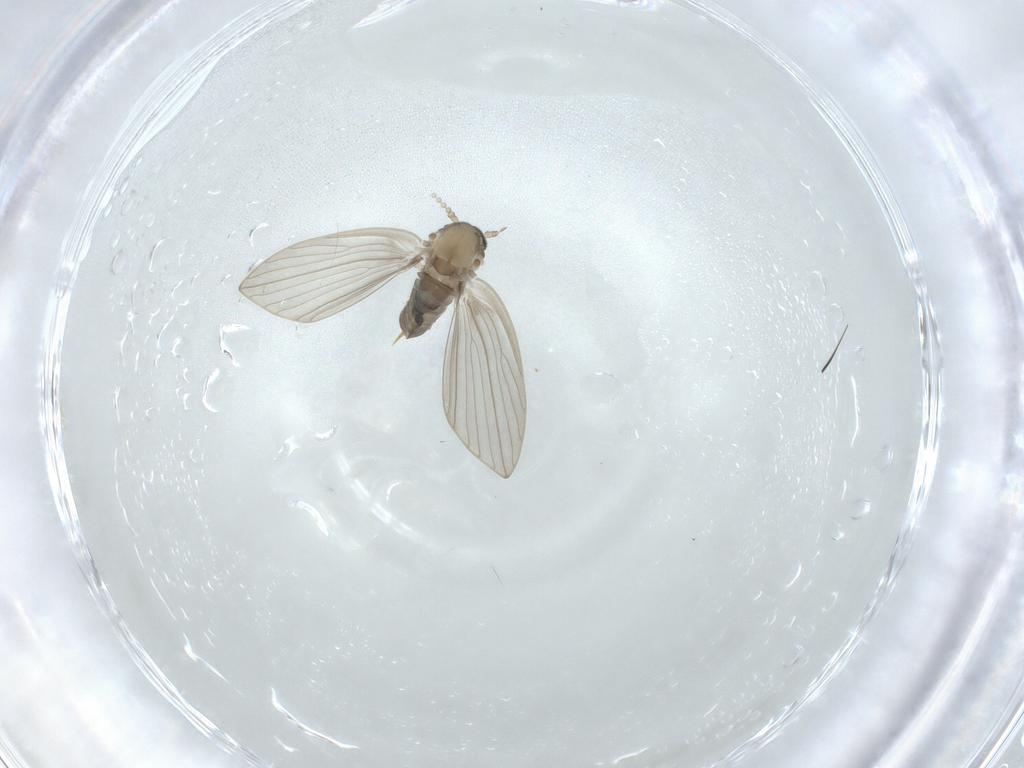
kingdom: Animalia
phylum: Arthropoda
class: Insecta
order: Diptera
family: Psychodidae
